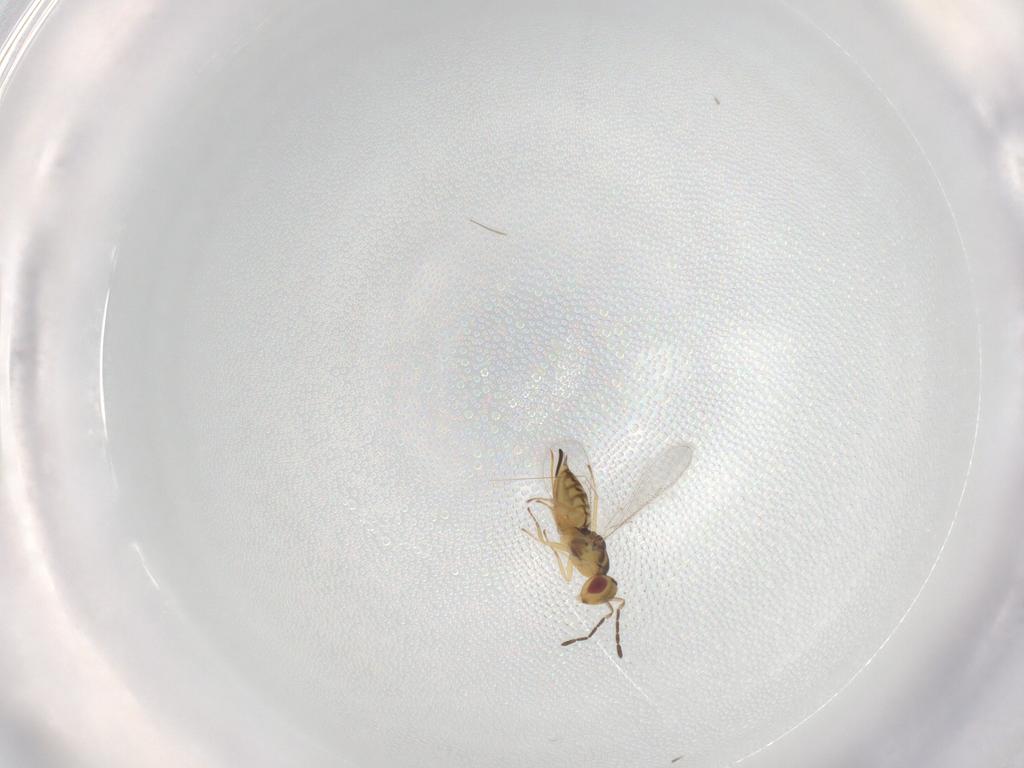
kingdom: Animalia
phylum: Arthropoda
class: Insecta
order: Hymenoptera
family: Eulophidae
